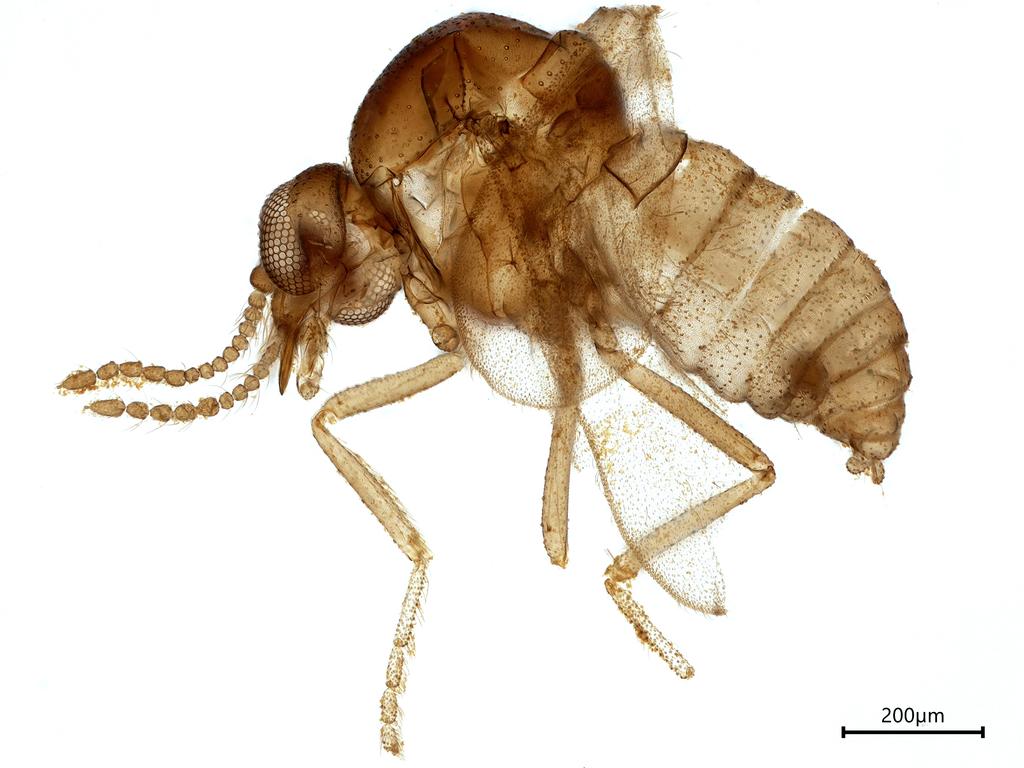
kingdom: Animalia
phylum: Arthropoda
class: Insecta
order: Diptera
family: Ceratopogonidae
